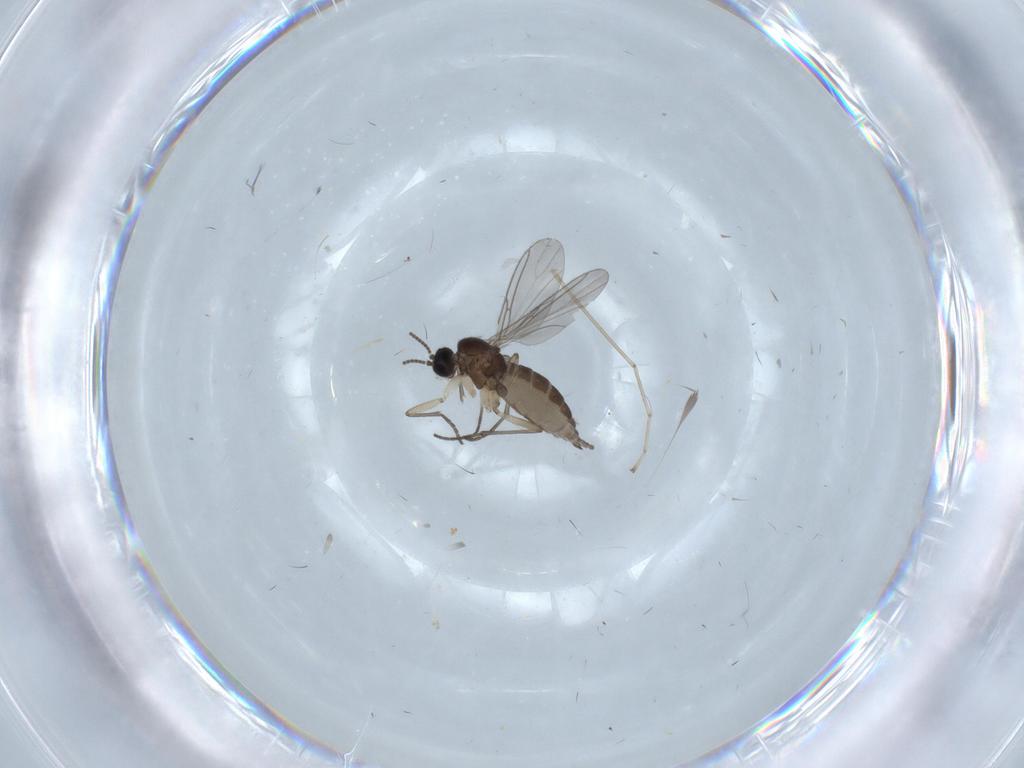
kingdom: Animalia
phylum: Arthropoda
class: Insecta
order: Diptera
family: Sciaridae
